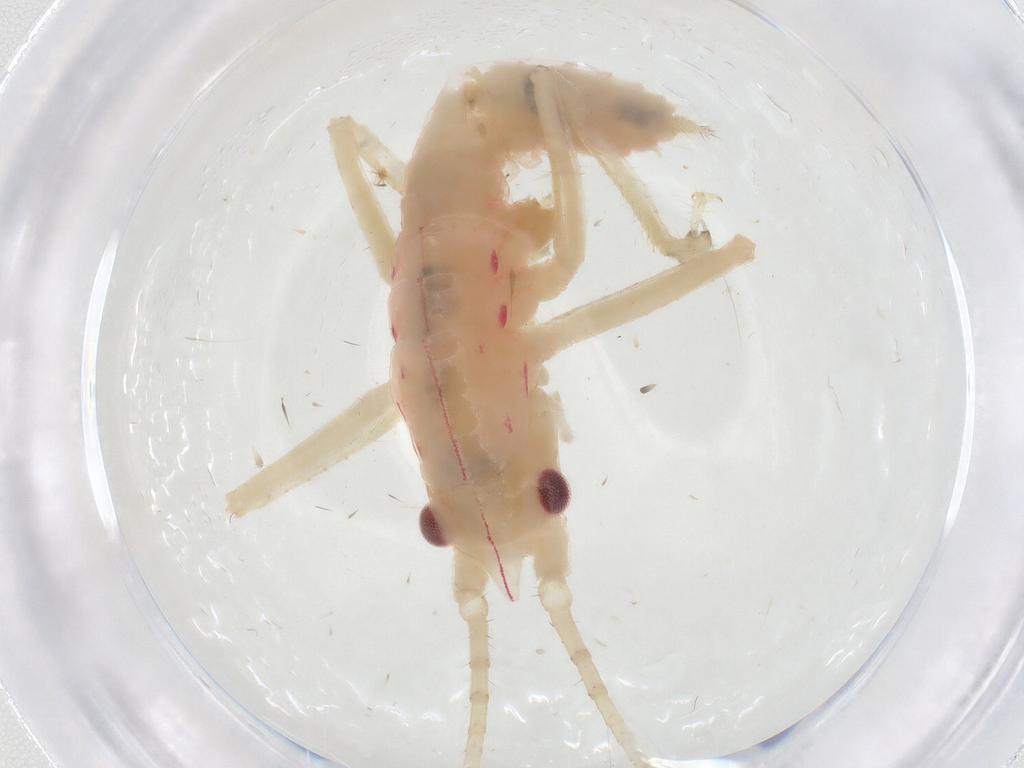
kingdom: Animalia
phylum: Arthropoda
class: Insecta
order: Orthoptera
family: Tettigoniidae
